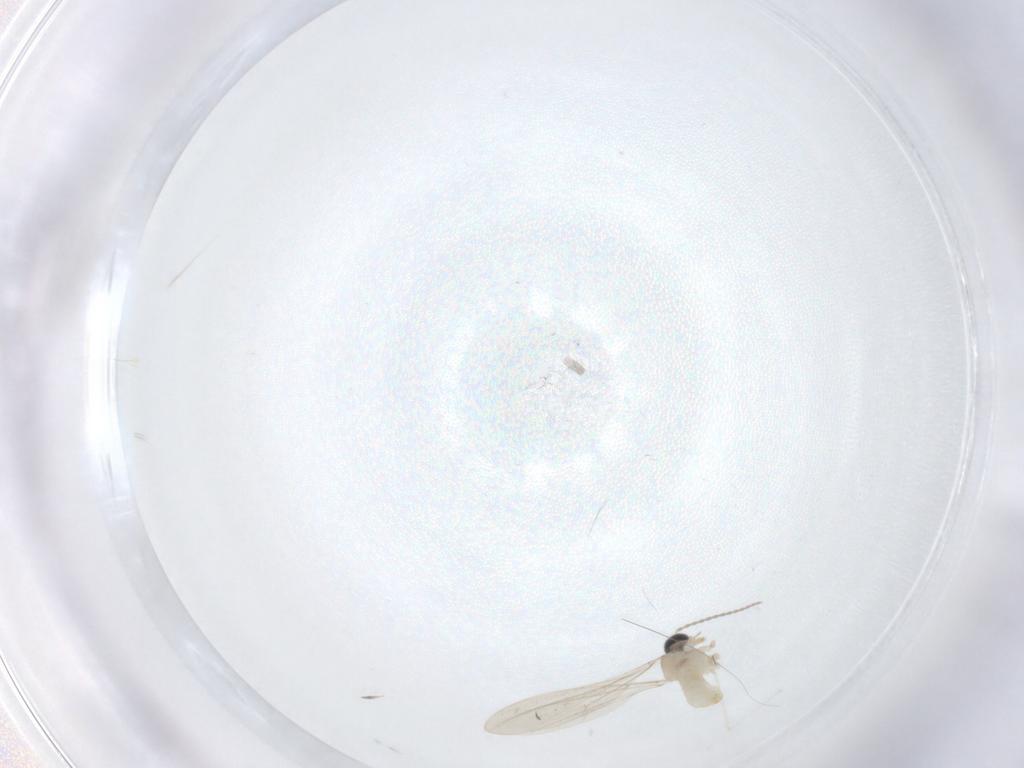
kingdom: Animalia
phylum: Arthropoda
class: Insecta
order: Diptera
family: Cecidomyiidae
